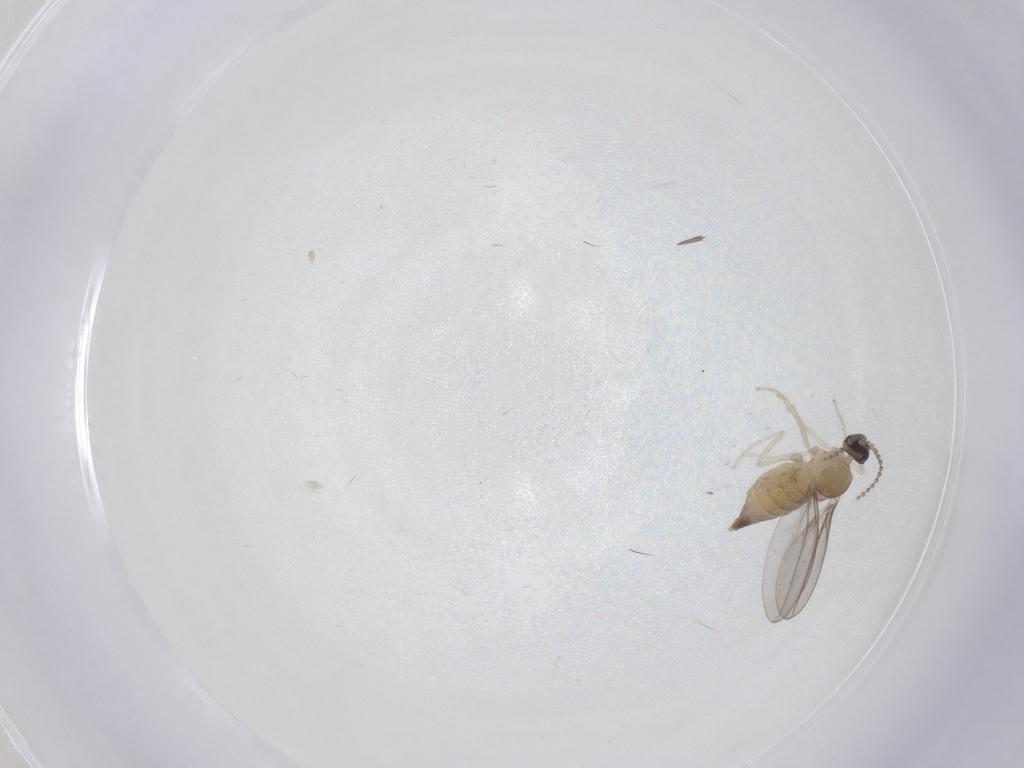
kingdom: Animalia
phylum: Arthropoda
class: Insecta
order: Diptera
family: Cecidomyiidae
